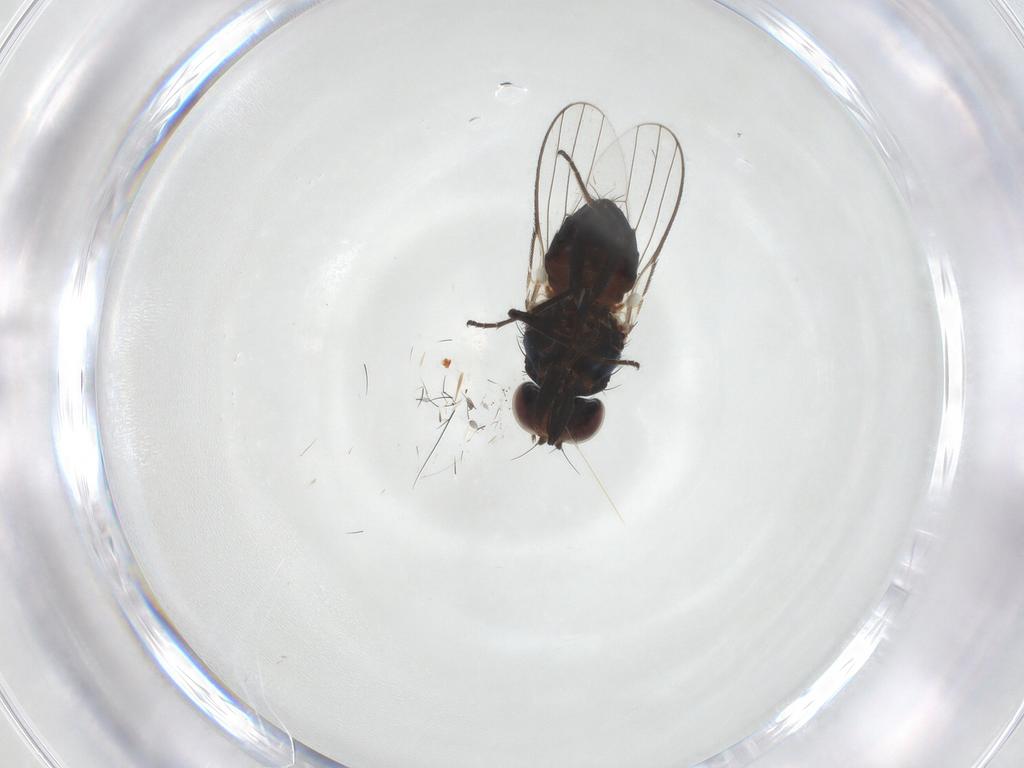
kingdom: Animalia
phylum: Arthropoda
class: Insecta
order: Diptera
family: Carnidae
